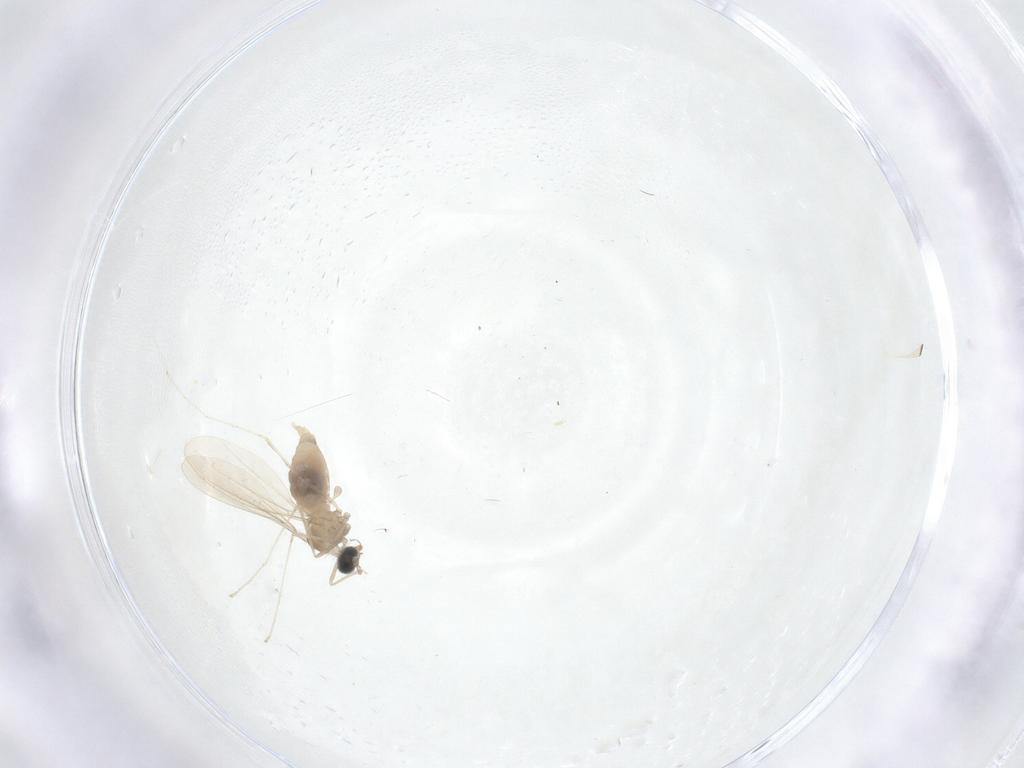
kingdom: Animalia
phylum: Arthropoda
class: Insecta
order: Diptera
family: Cecidomyiidae
